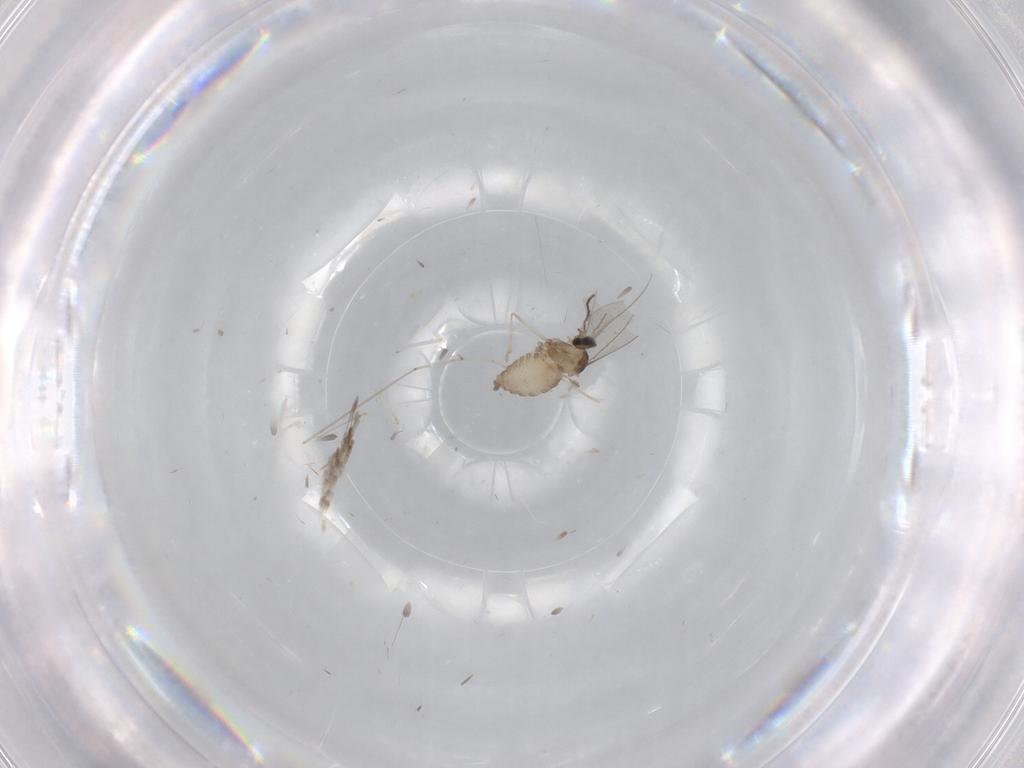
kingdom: Animalia
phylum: Arthropoda
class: Insecta
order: Diptera
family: Cecidomyiidae
